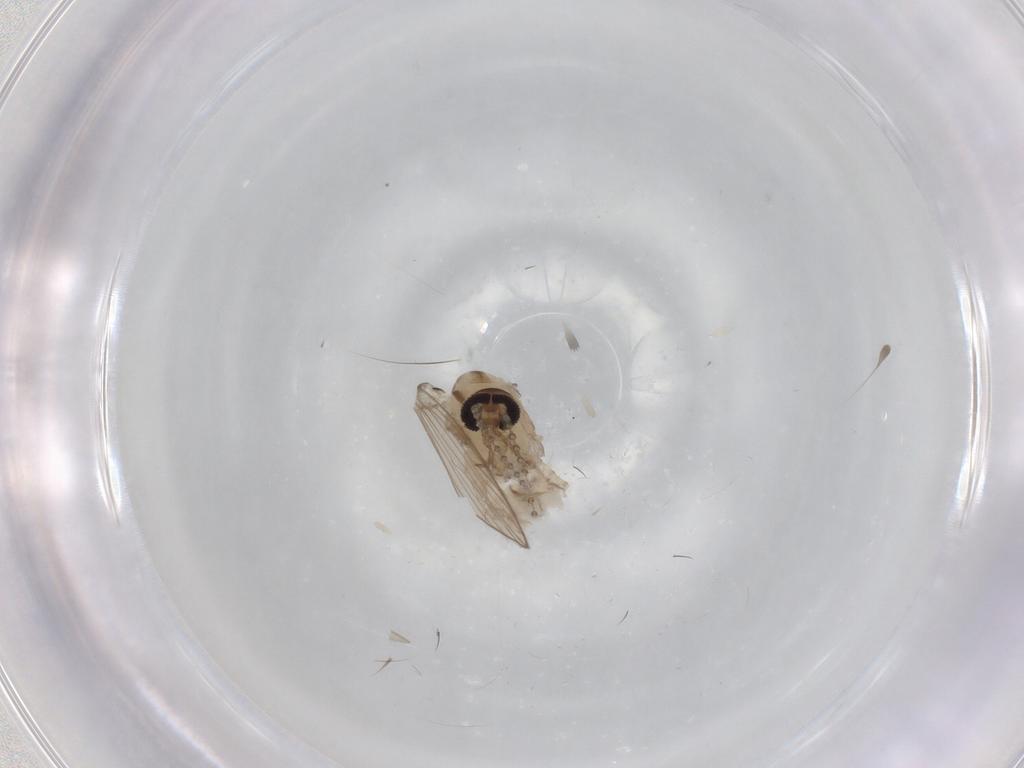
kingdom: Animalia
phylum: Arthropoda
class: Insecta
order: Diptera
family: Psychodidae
